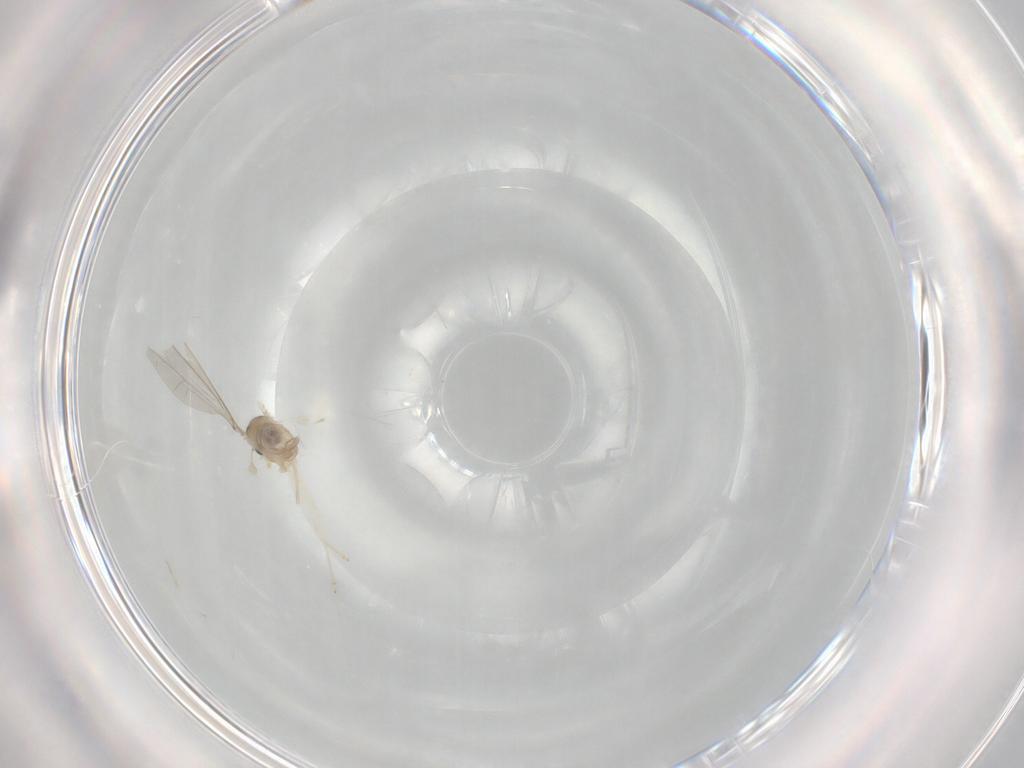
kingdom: Animalia
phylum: Arthropoda
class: Insecta
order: Diptera
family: Cecidomyiidae
